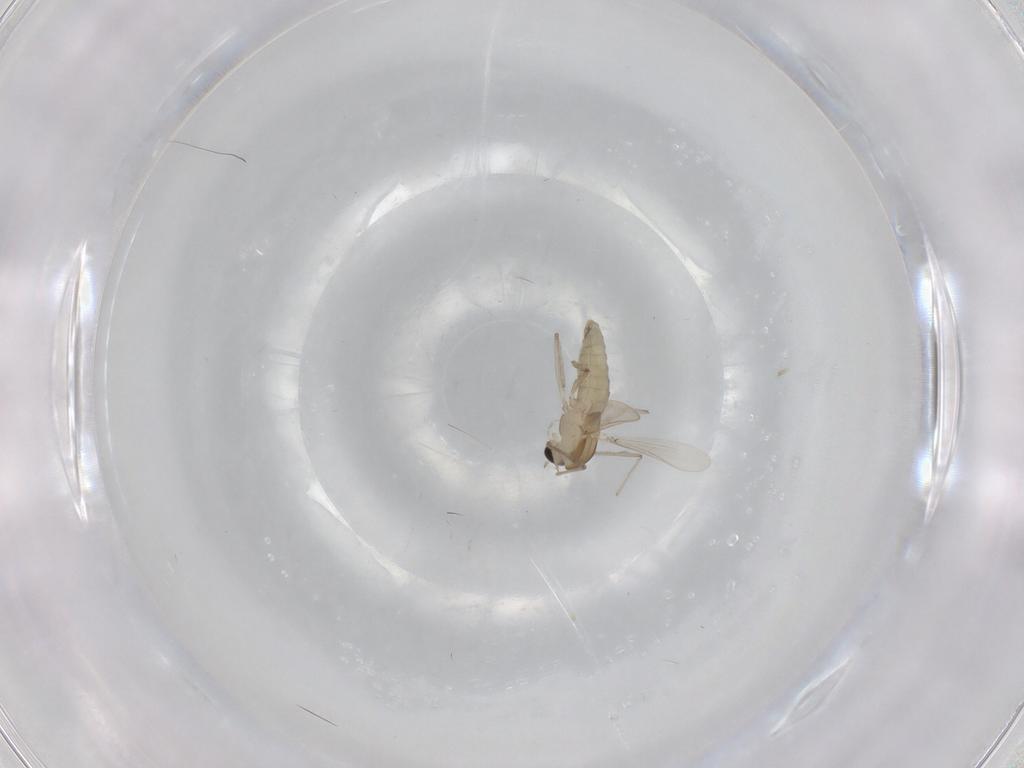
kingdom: Animalia
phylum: Arthropoda
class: Insecta
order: Diptera
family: Chironomidae
